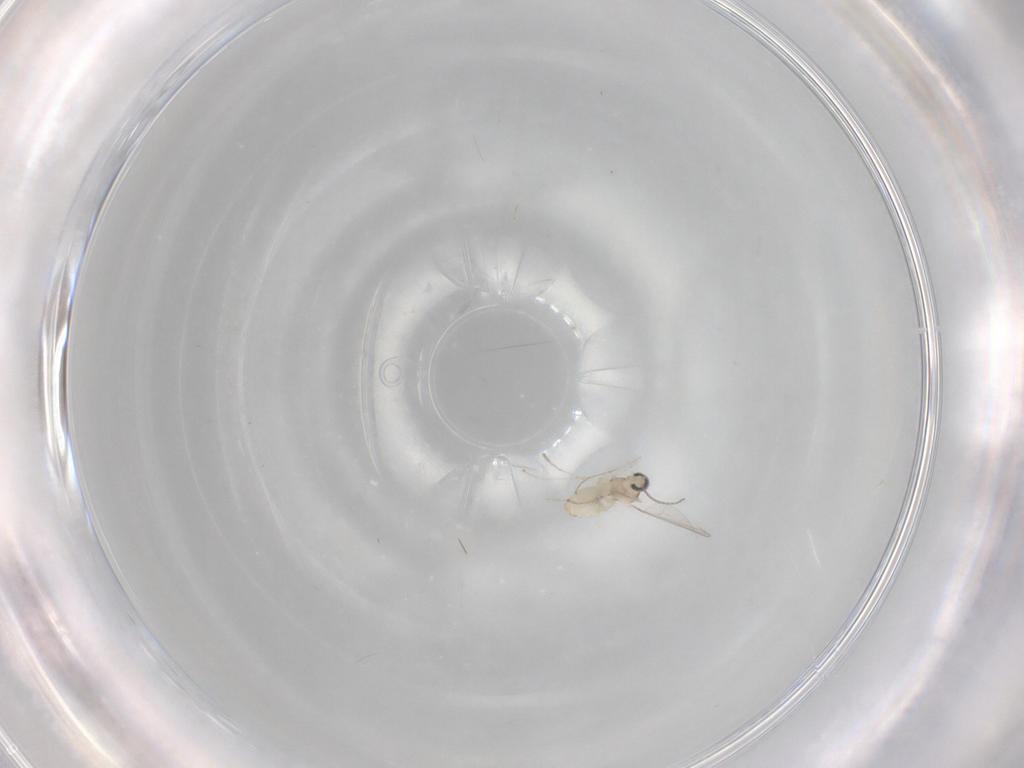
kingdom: Animalia
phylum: Arthropoda
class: Insecta
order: Diptera
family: Cecidomyiidae
